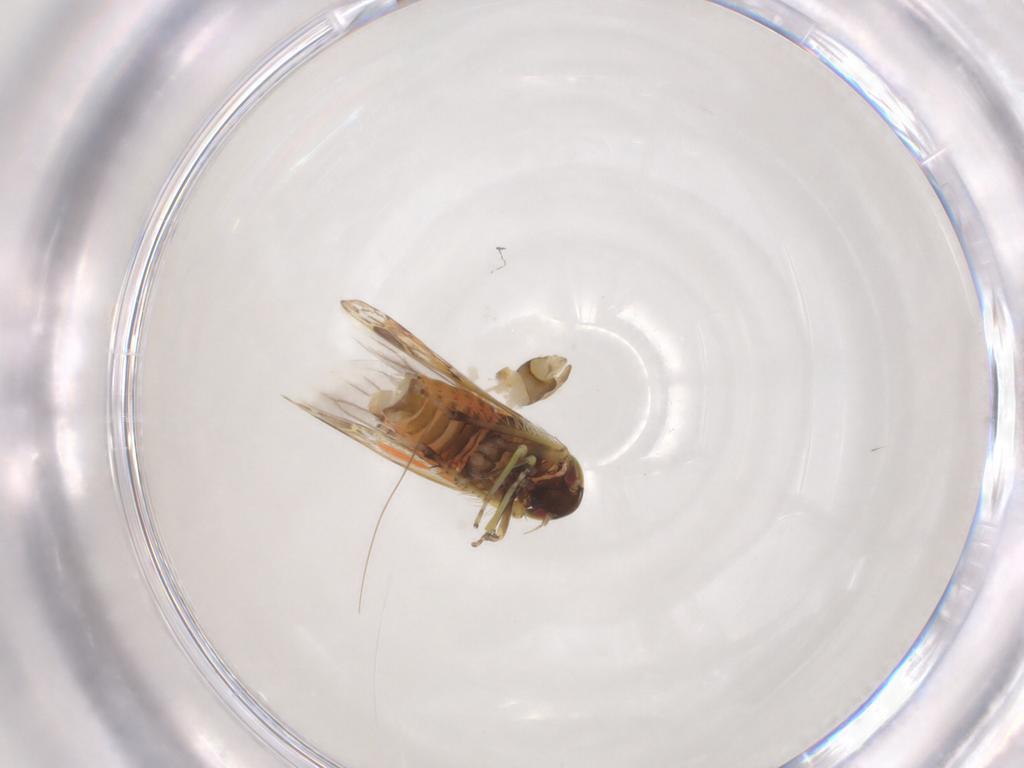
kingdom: Animalia
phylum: Arthropoda
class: Insecta
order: Hemiptera
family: Cicadellidae
